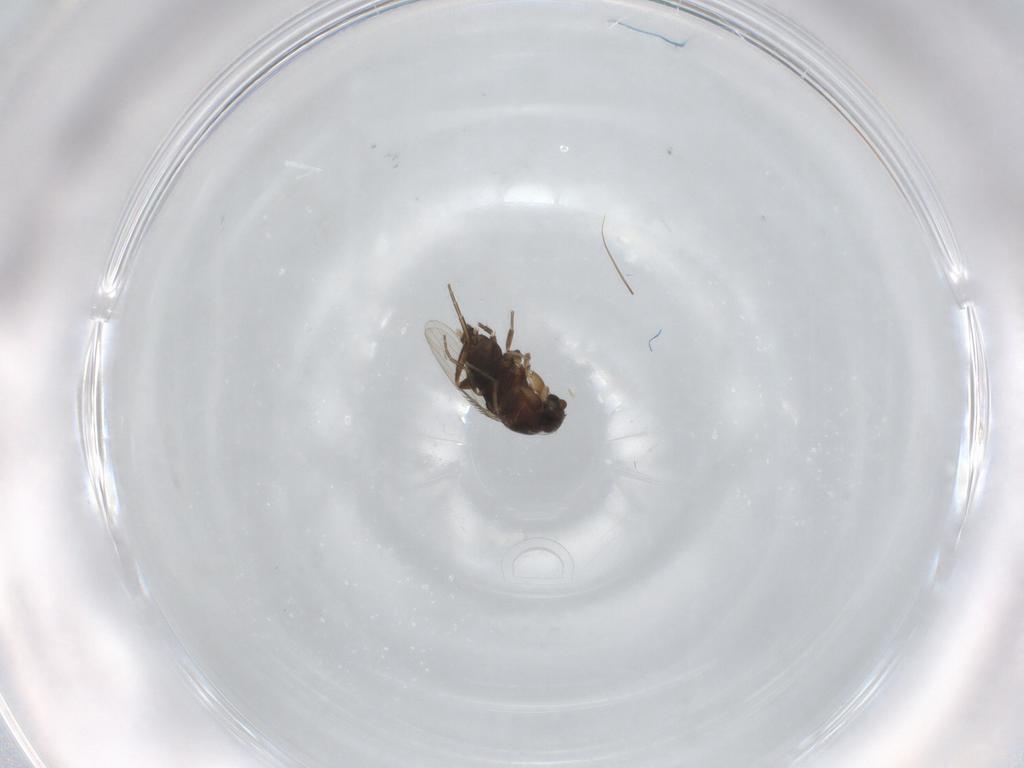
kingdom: Animalia
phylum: Arthropoda
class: Insecta
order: Diptera
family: Phoridae
